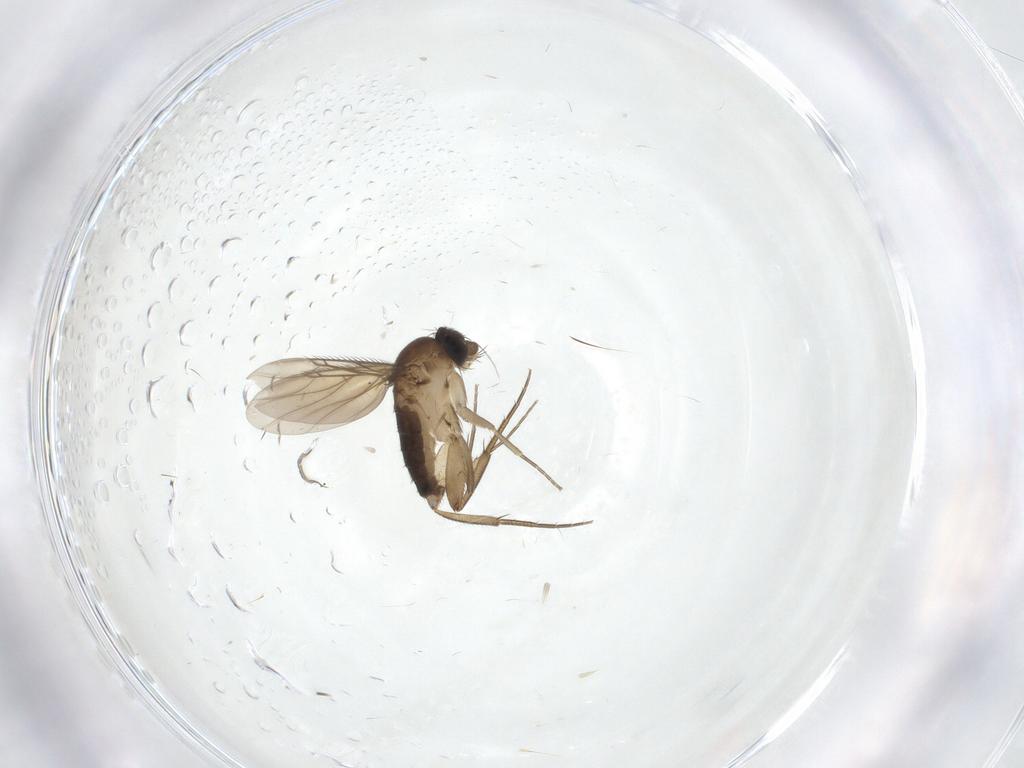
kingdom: Animalia
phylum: Arthropoda
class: Insecta
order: Diptera
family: Phoridae
